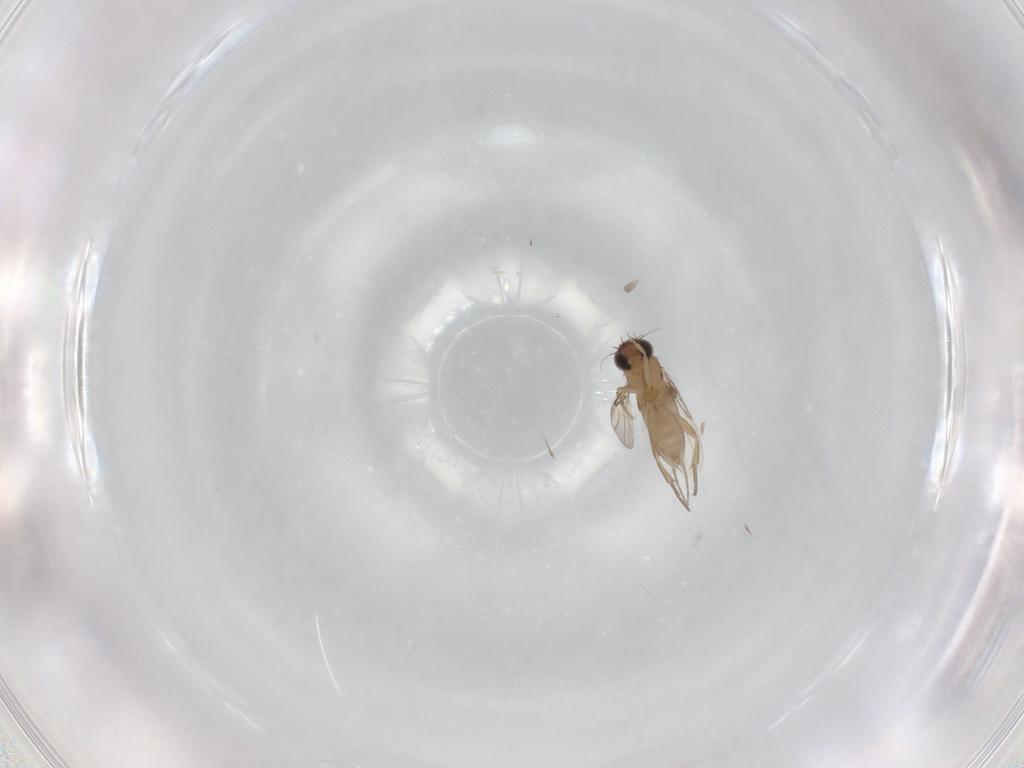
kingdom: Animalia
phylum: Arthropoda
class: Insecta
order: Diptera
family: Phoridae
